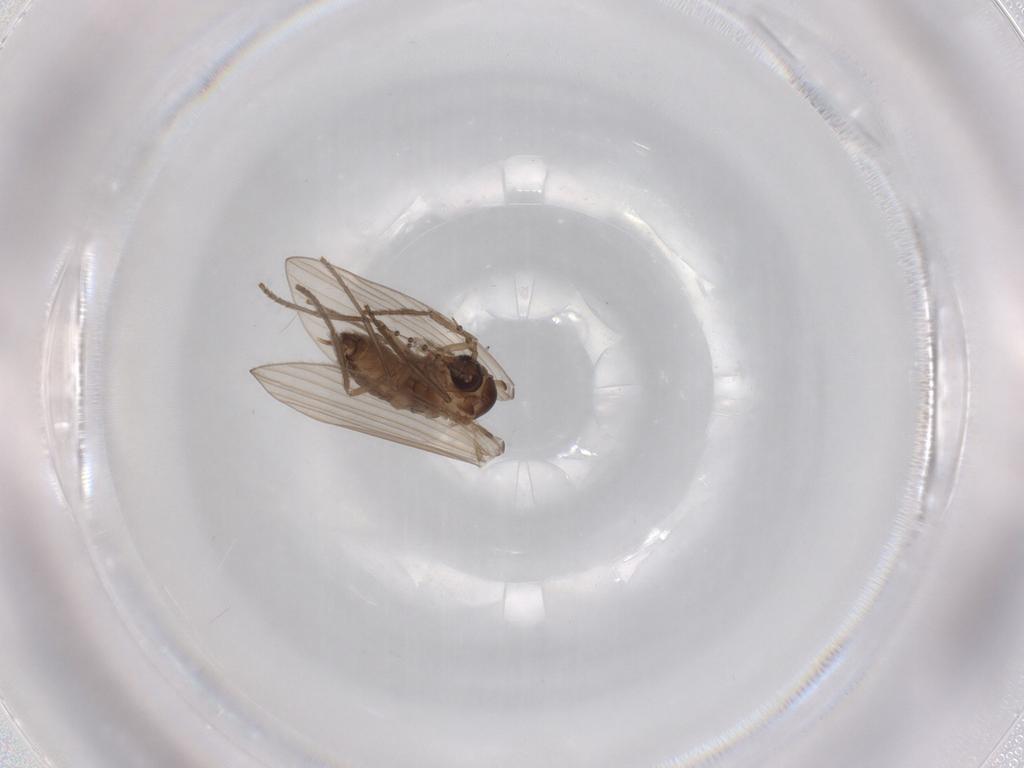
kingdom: Animalia
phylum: Arthropoda
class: Insecta
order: Diptera
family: Psychodidae
